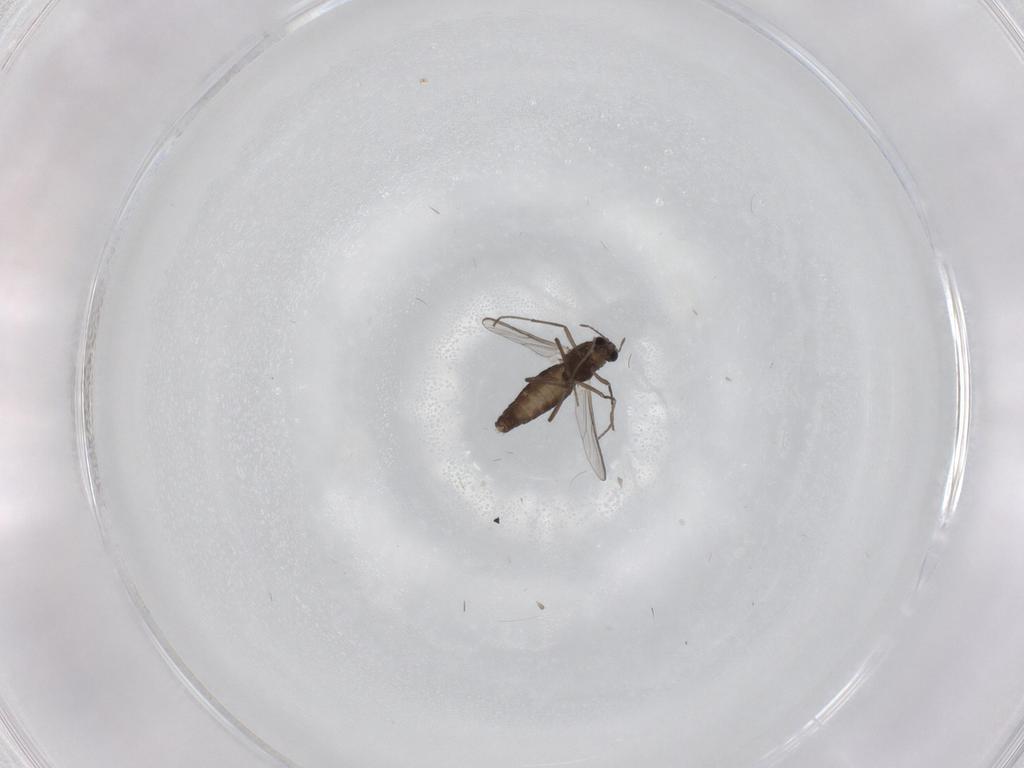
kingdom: Animalia
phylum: Arthropoda
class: Insecta
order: Diptera
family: Chironomidae
